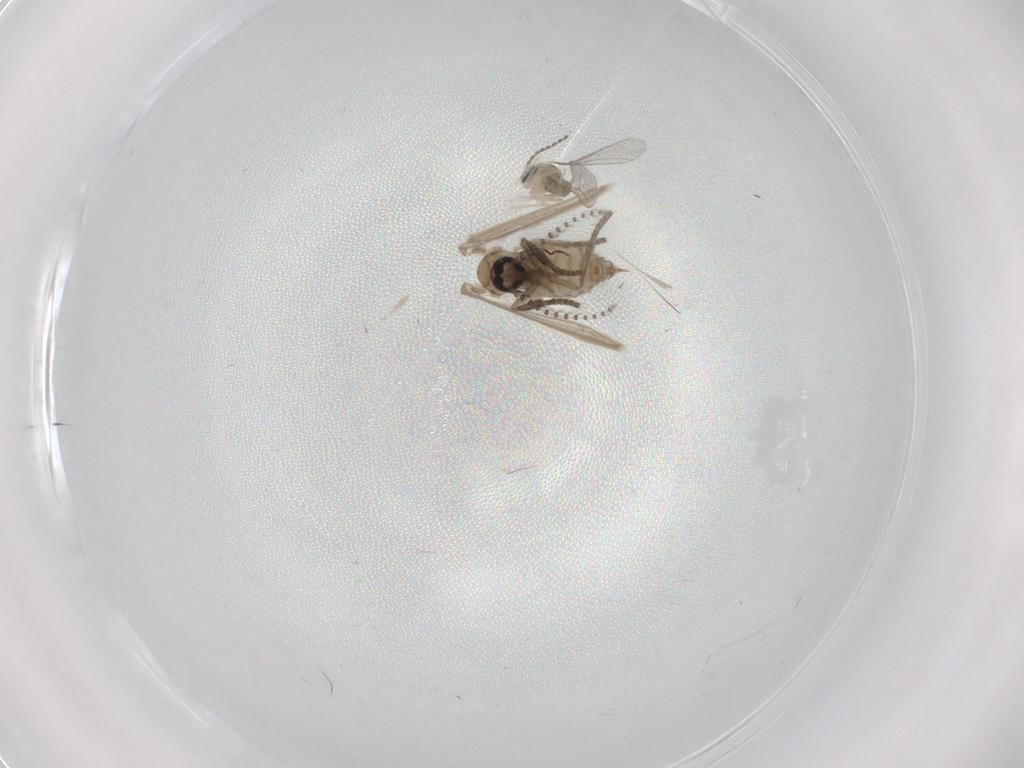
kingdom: Animalia
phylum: Arthropoda
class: Insecta
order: Diptera
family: Cecidomyiidae
